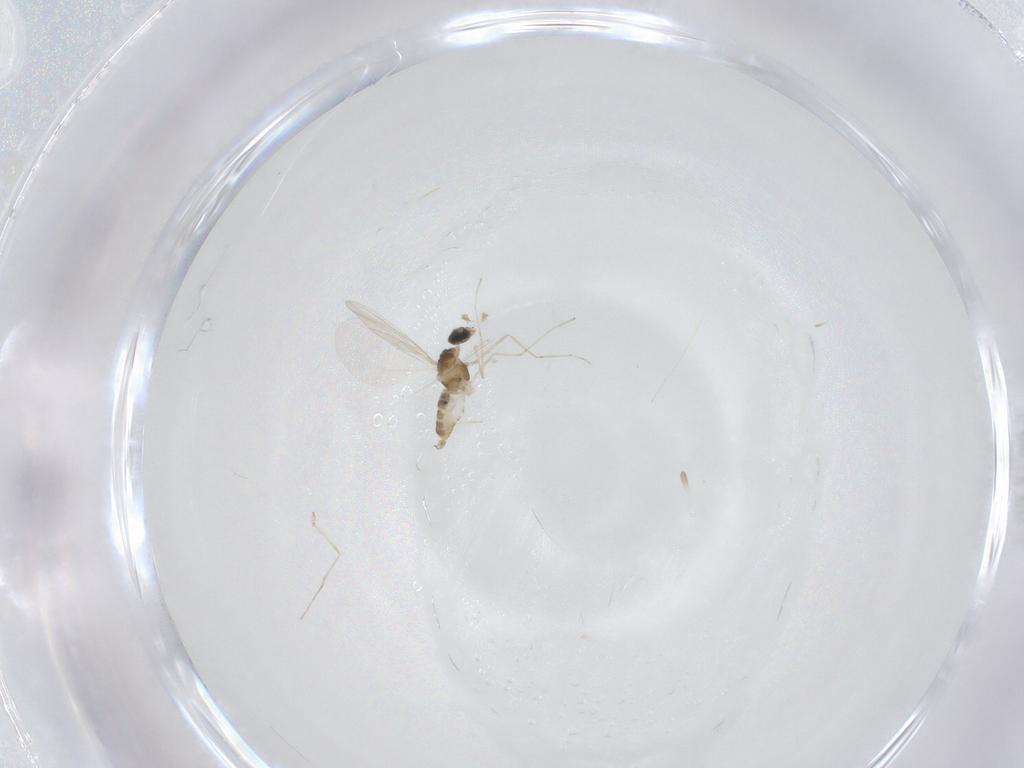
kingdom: Animalia
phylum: Arthropoda
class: Insecta
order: Diptera
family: Cecidomyiidae
